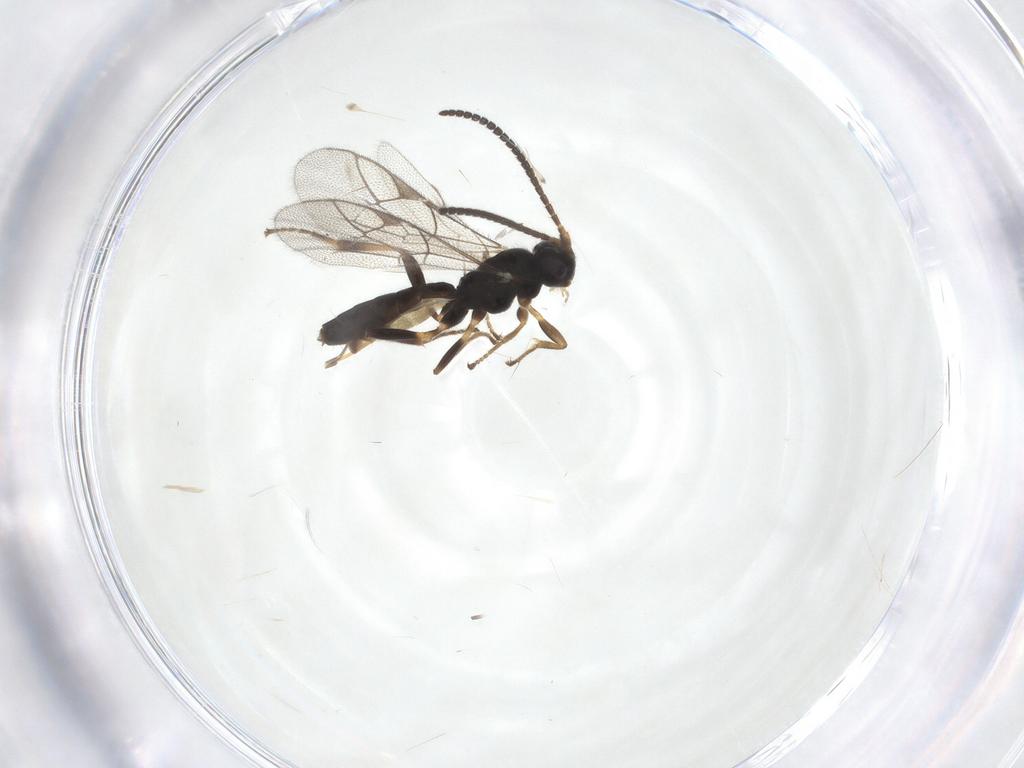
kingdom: Animalia
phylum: Arthropoda
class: Insecta
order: Hymenoptera
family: Ichneumonidae
